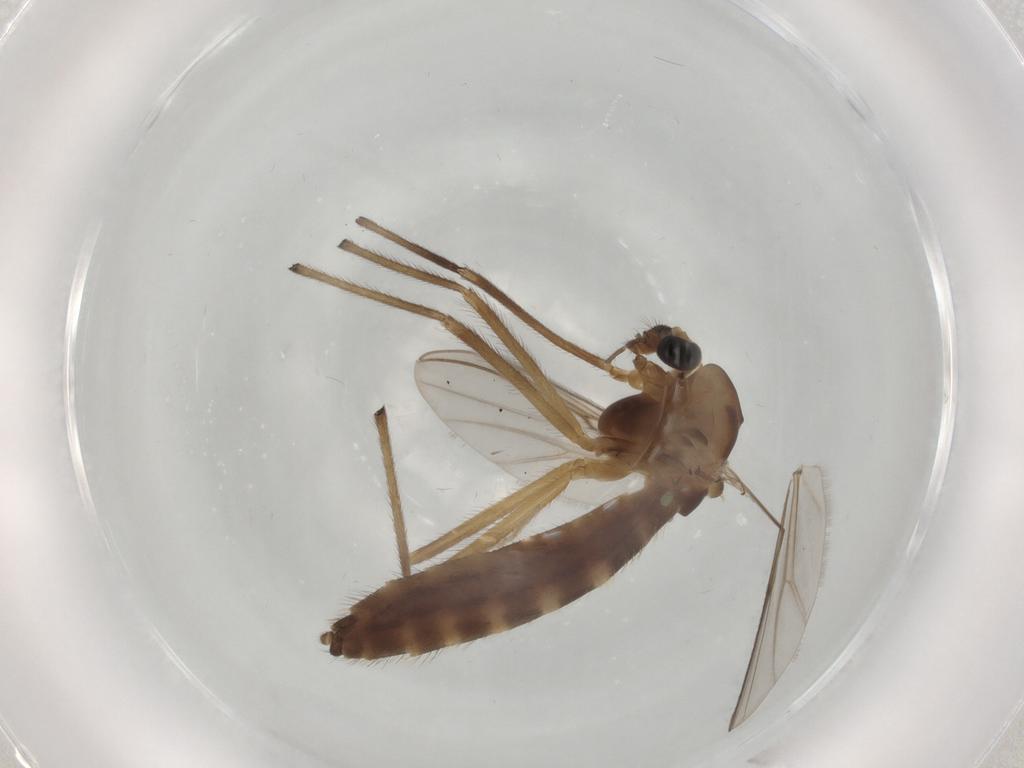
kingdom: Animalia
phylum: Arthropoda
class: Insecta
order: Diptera
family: Chironomidae
